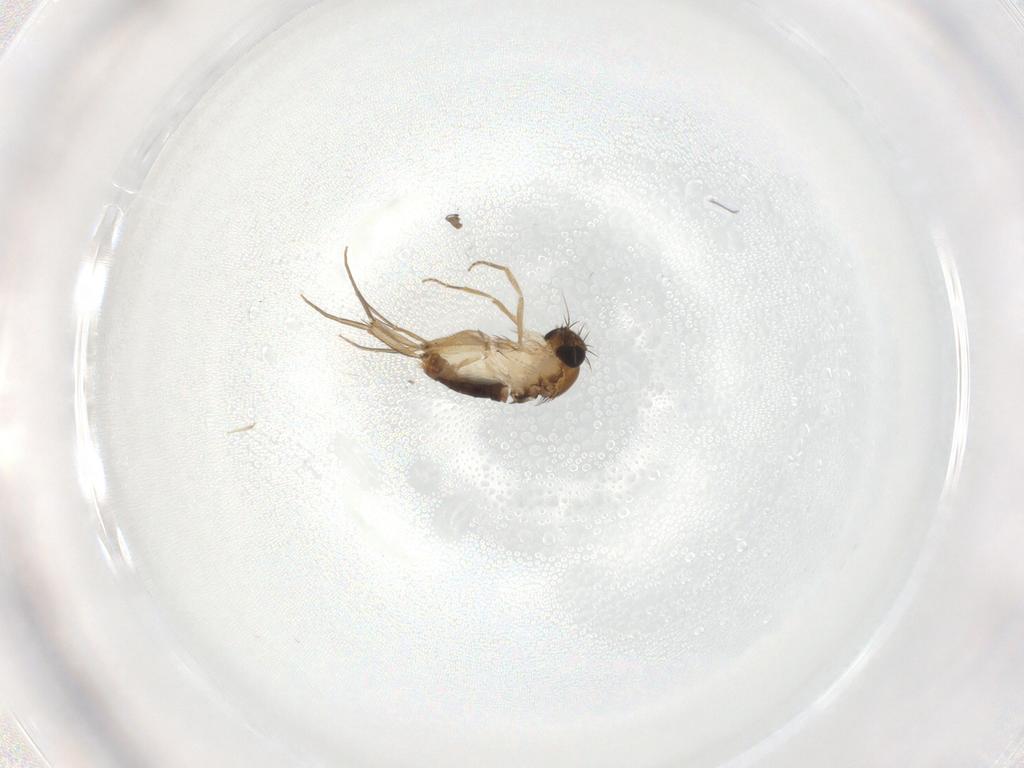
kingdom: Animalia
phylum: Arthropoda
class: Insecta
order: Diptera
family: Phoridae
